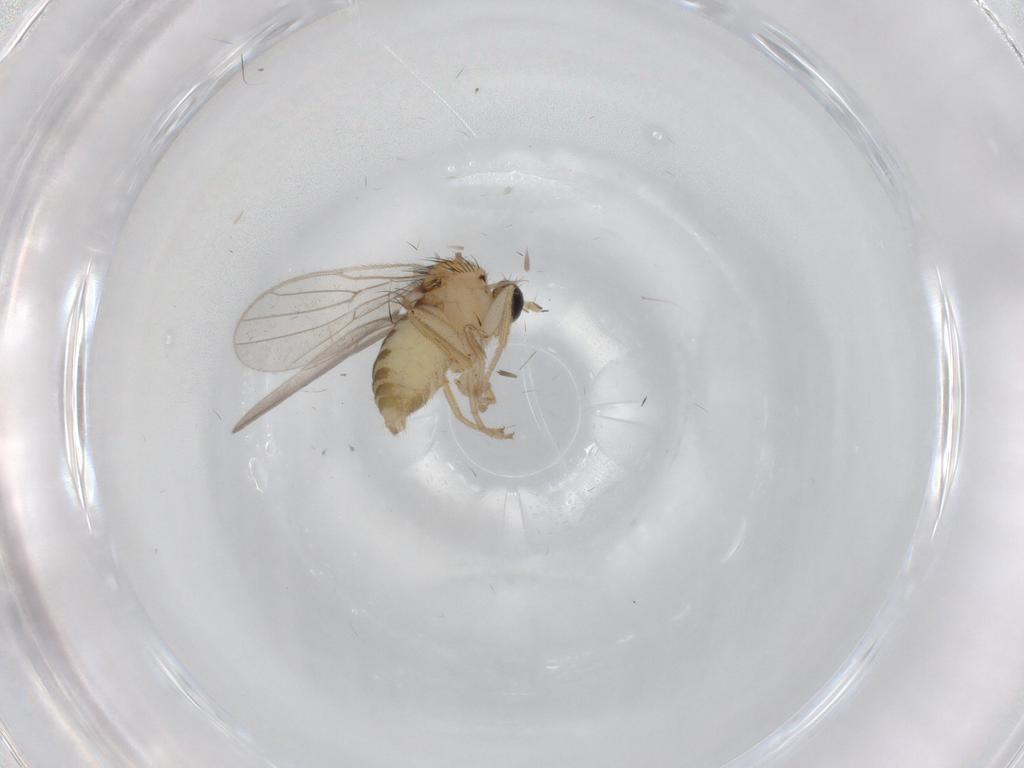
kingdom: Animalia
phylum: Arthropoda
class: Insecta
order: Diptera
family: Hybotidae
